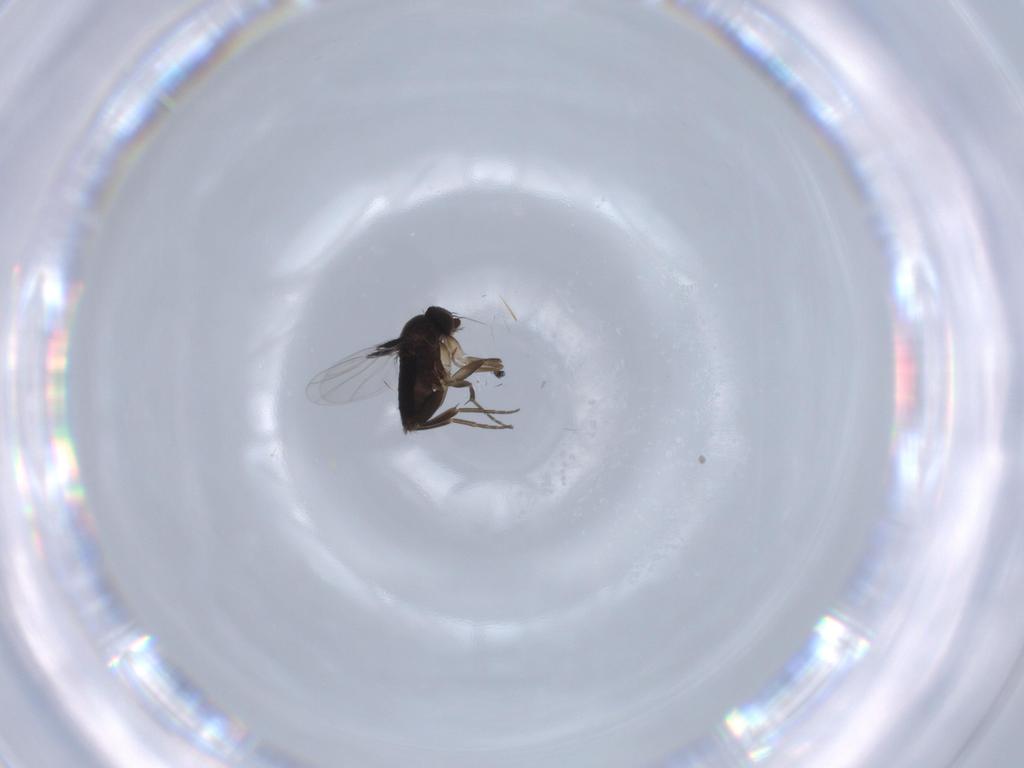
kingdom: Animalia
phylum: Arthropoda
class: Insecta
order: Diptera
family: Phoridae
